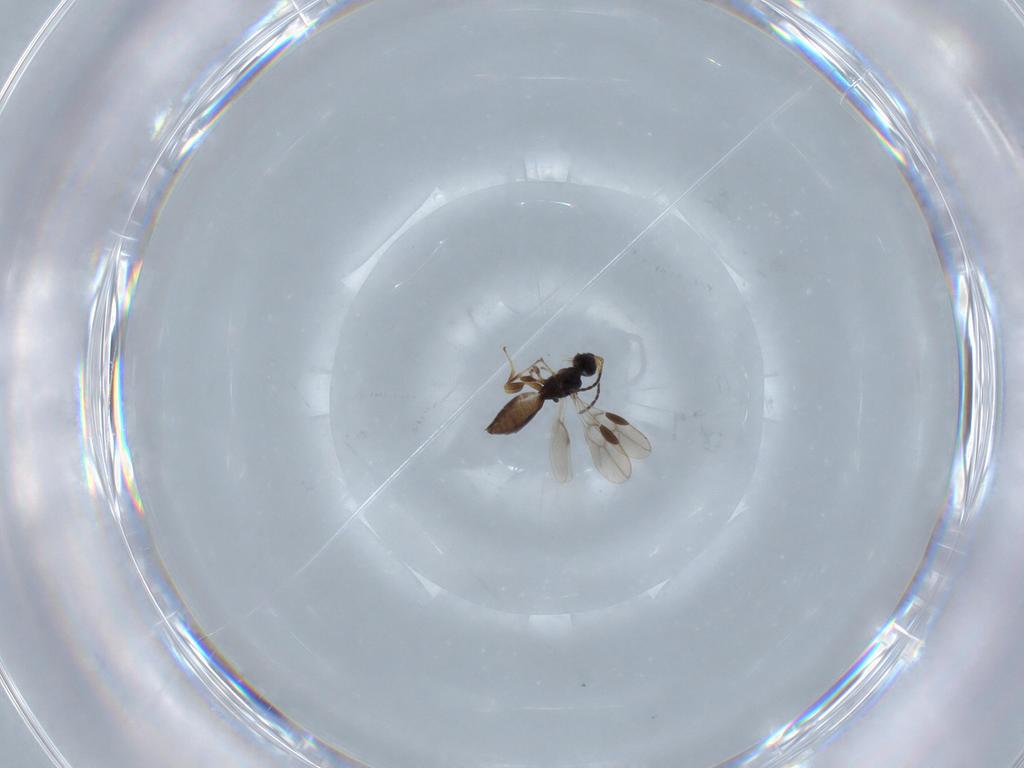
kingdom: Animalia
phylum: Arthropoda
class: Insecta
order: Hymenoptera
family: Braconidae
